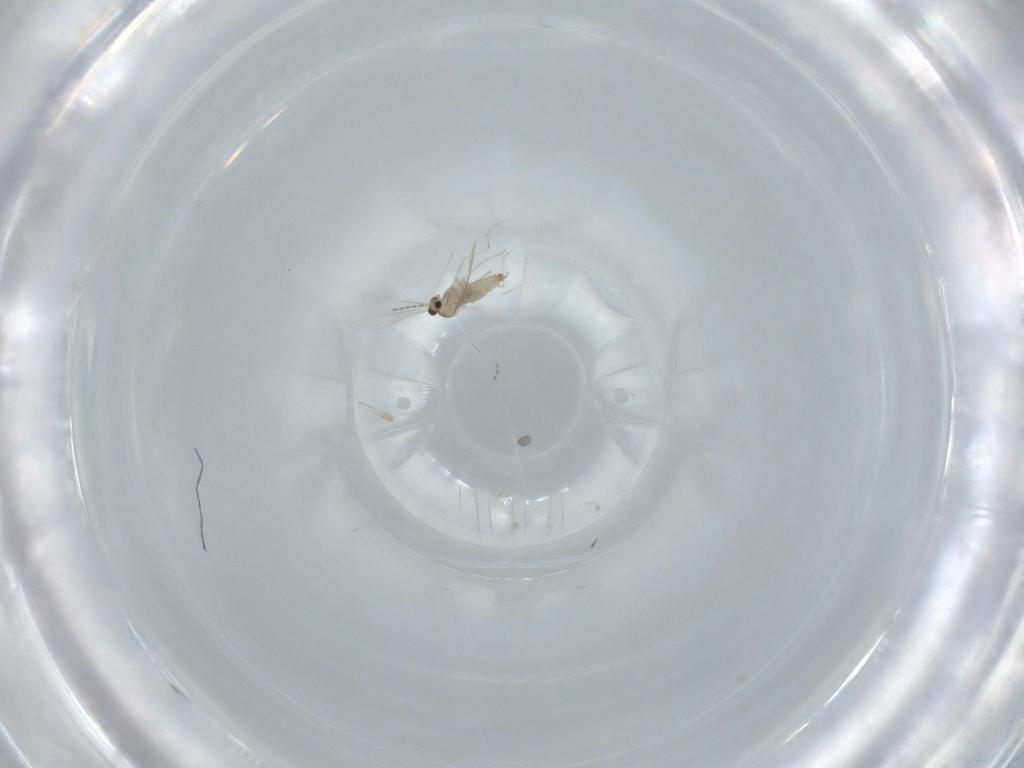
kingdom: Animalia
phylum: Arthropoda
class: Insecta
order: Diptera
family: Cecidomyiidae
